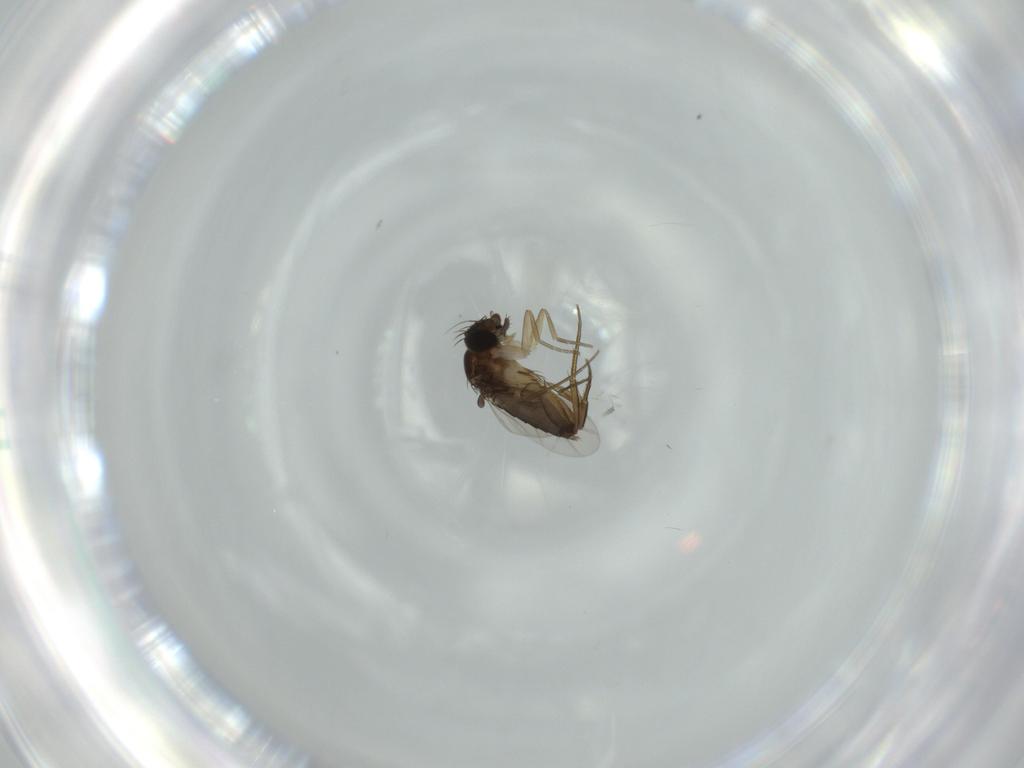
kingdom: Animalia
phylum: Arthropoda
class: Insecta
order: Diptera
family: Phoridae
